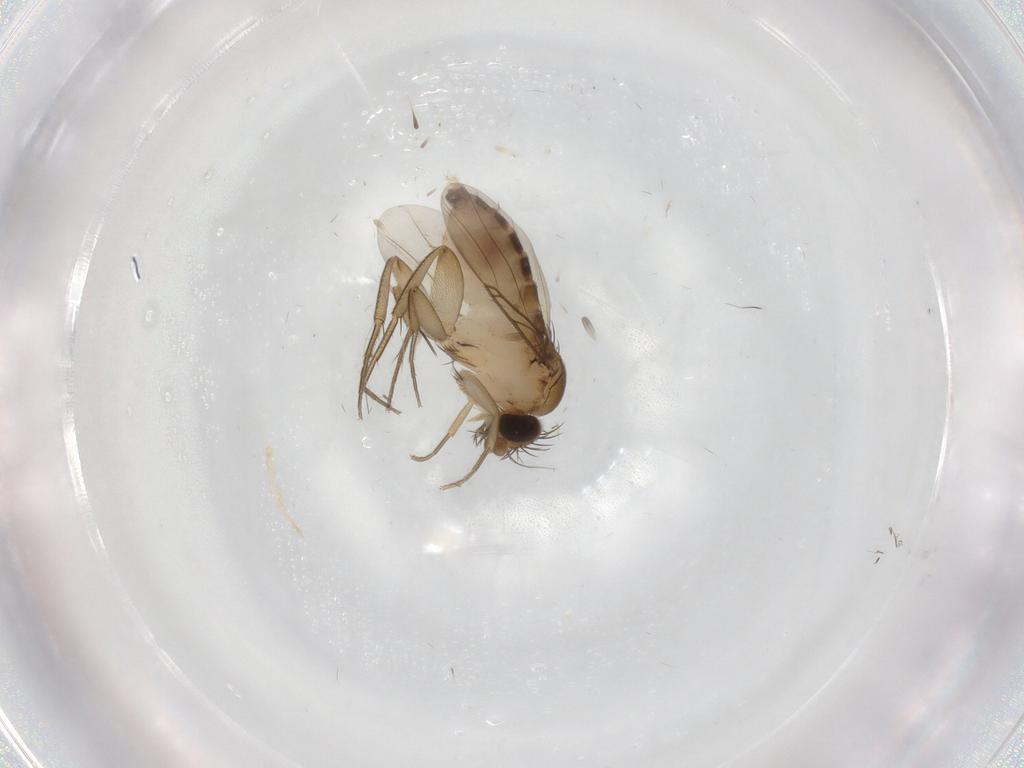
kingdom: Animalia
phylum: Arthropoda
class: Insecta
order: Diptera
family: Phoridae
